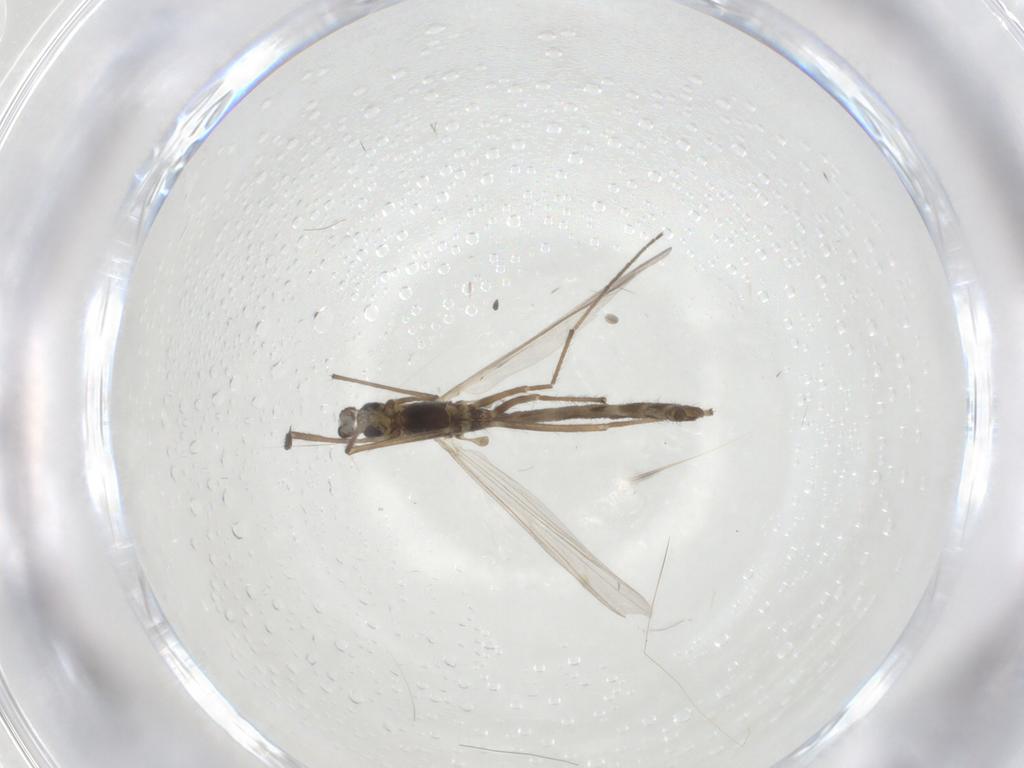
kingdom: Animalia
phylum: Arthropoda
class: Insecta
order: Diptera
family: Chironomidae
